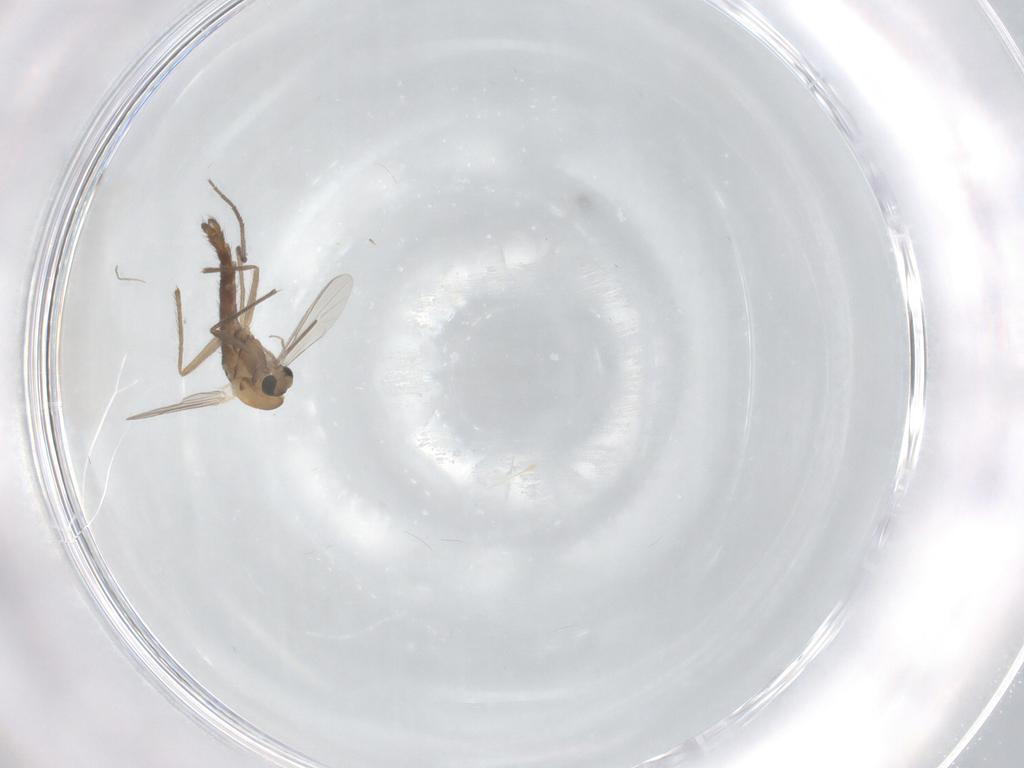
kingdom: Animalia
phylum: Arthropoda
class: Insecta
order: Diptera
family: Chironomidae
